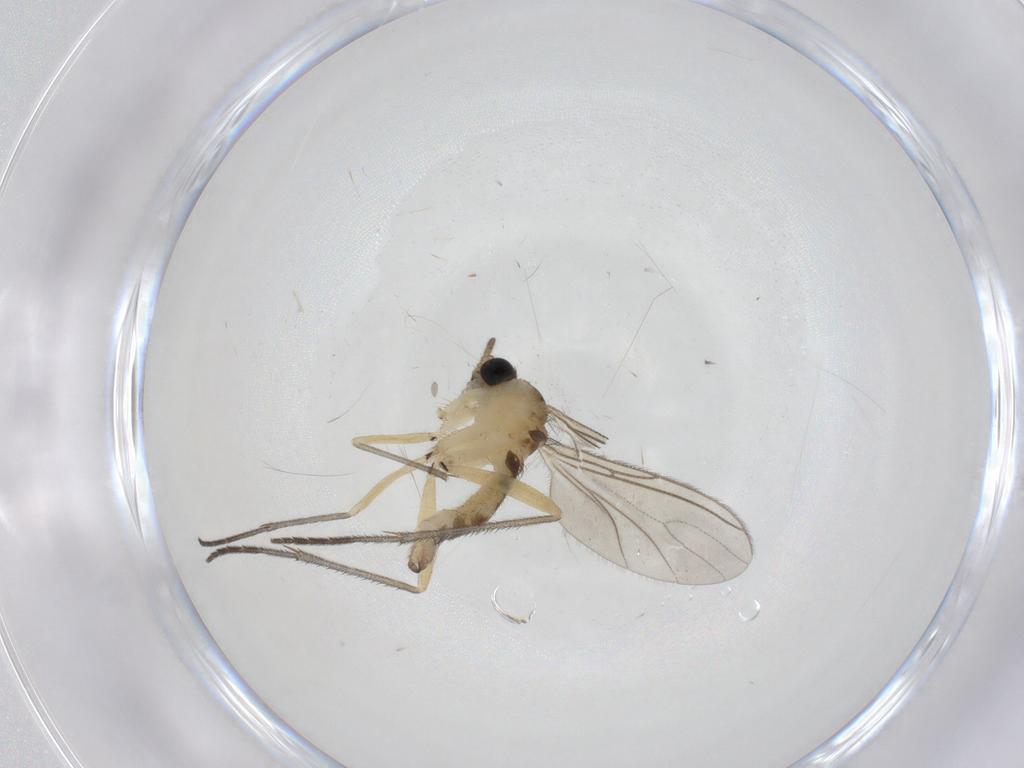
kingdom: Animalia
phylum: Arthropoda
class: Insecta
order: Diptera
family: Sciaridae
